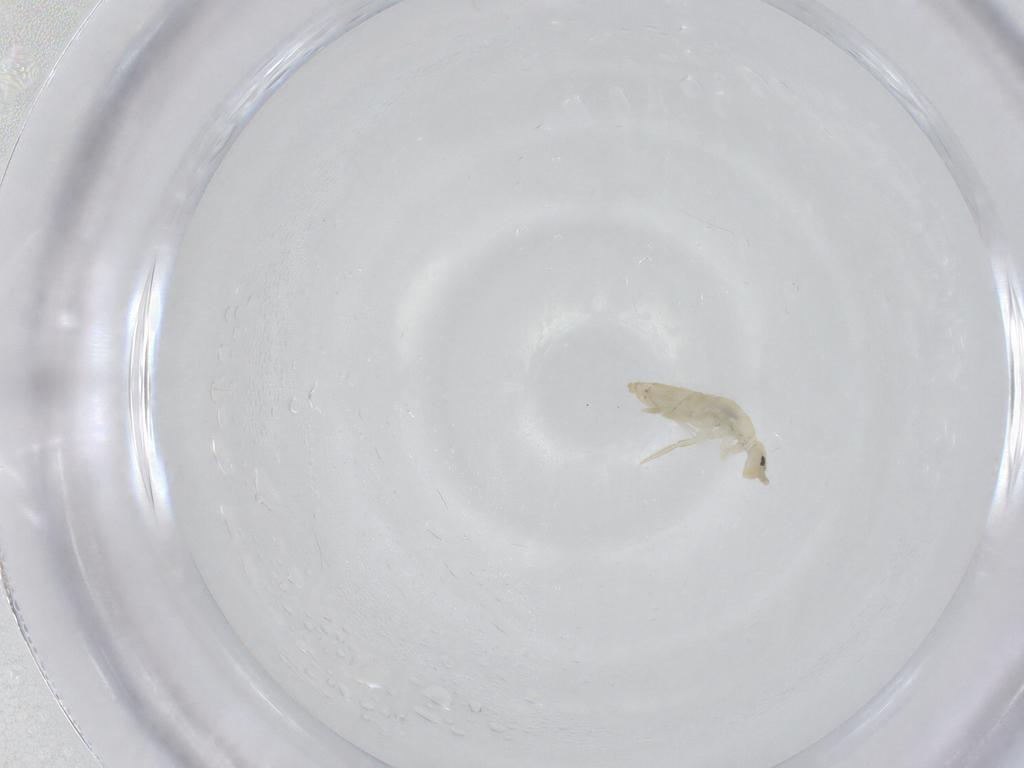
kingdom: Animalia
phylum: Arthropoda
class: Collembola
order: Entomobryomorpha
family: Entomobryidae
